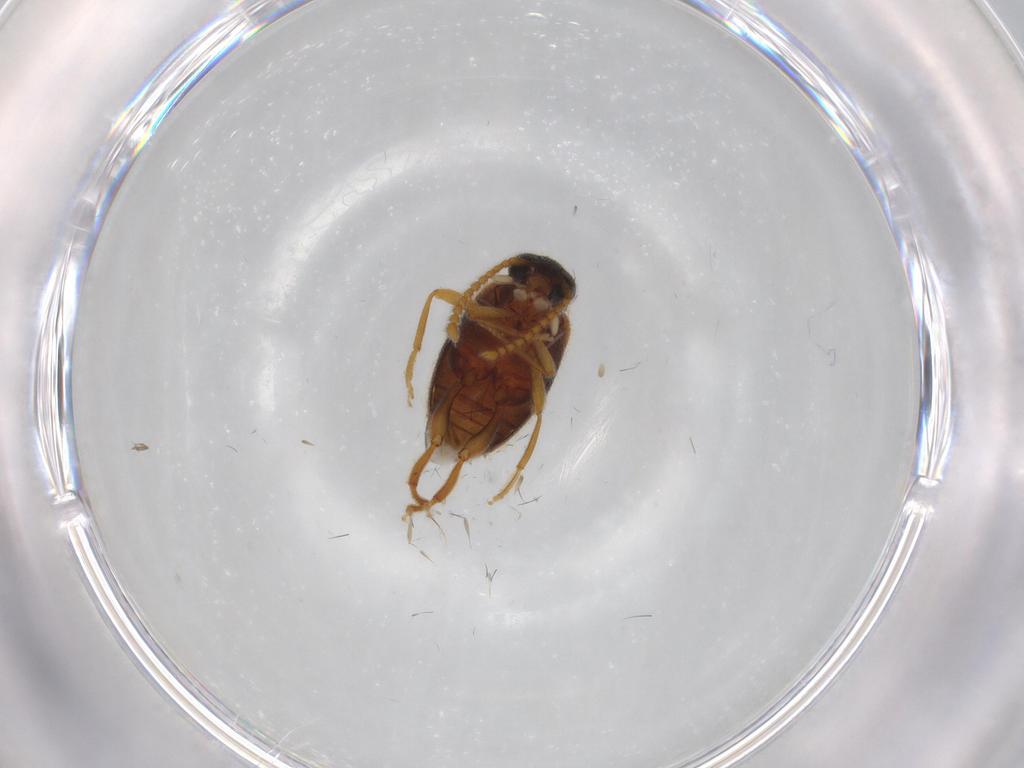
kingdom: Animalia
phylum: Arthropoda
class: Insecta
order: Coleoptera
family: Aderidae
